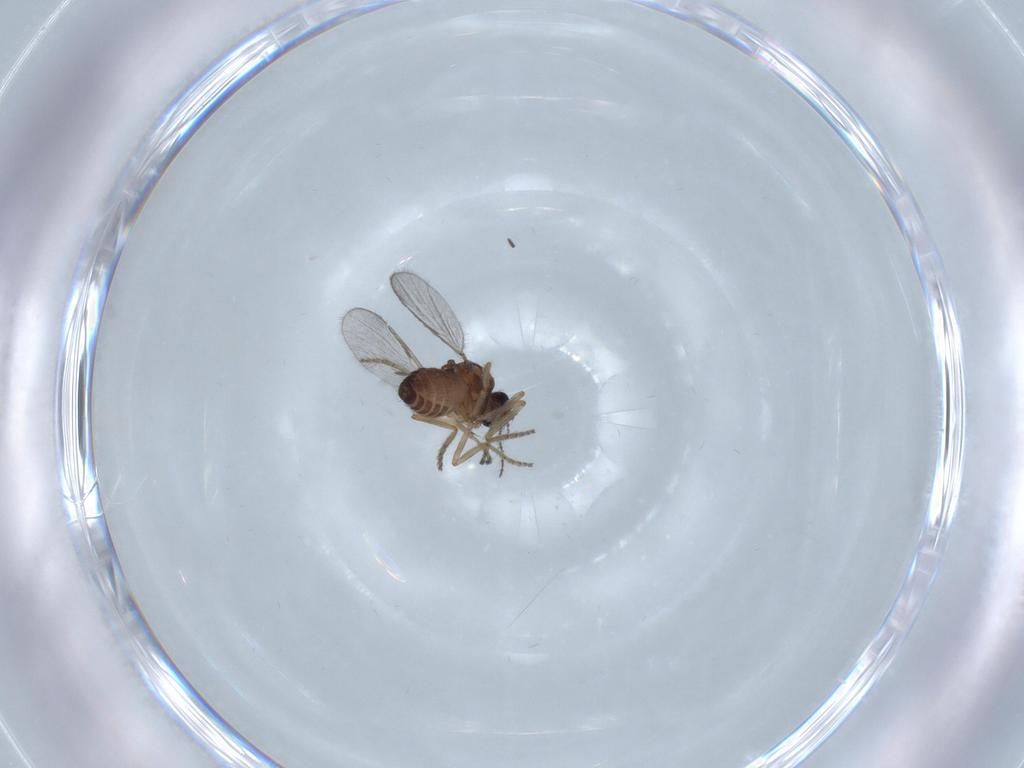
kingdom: Animalia
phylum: Arthropoda
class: Insecta
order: Diptera
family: Ceratopogonidae
